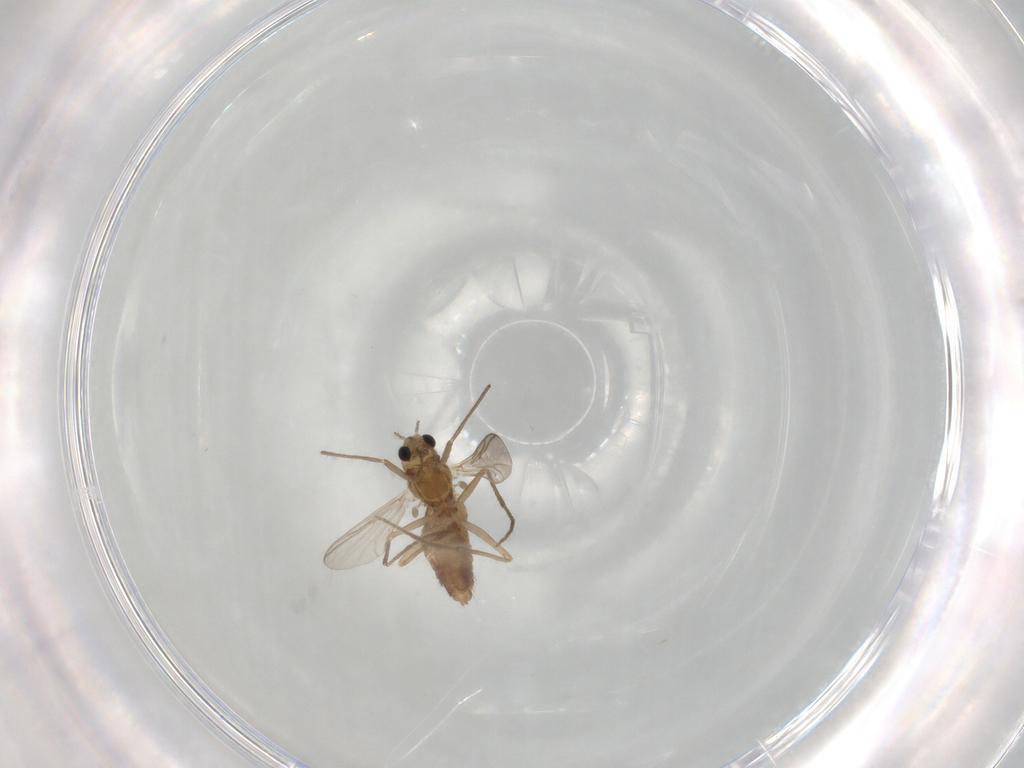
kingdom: Animalia
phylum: Arthropoda
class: Insecta
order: Diptera
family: Chironomidae
